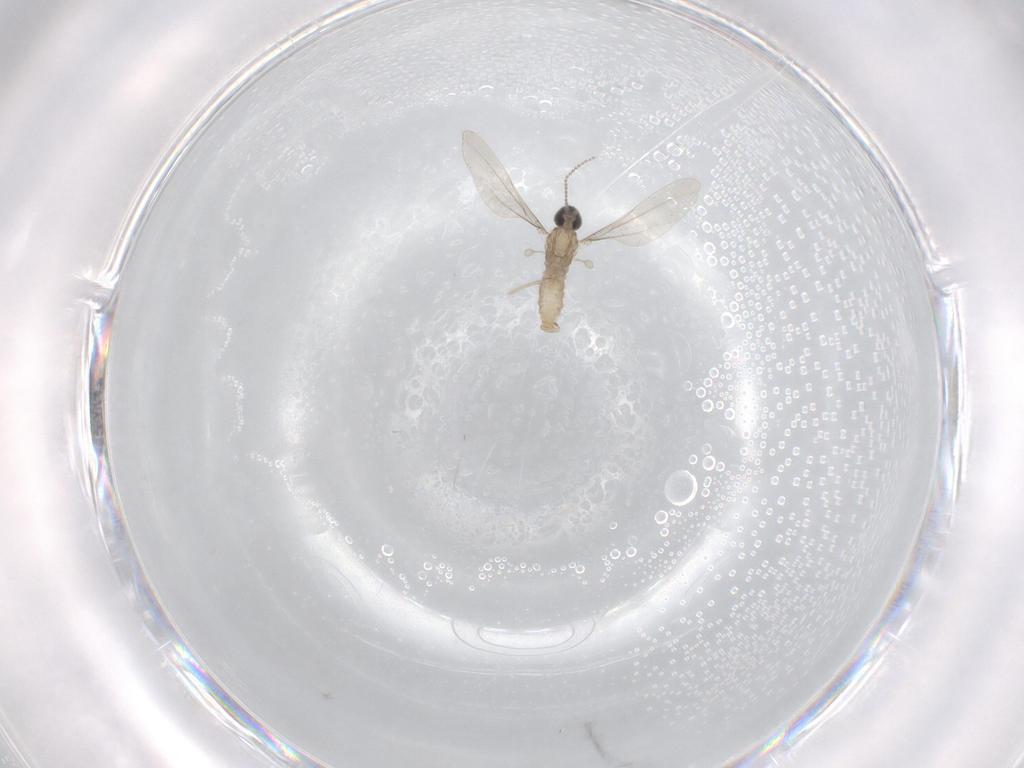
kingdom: Animalia
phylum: Arthropoda
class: Insecta
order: Diptera
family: Limoniidae
